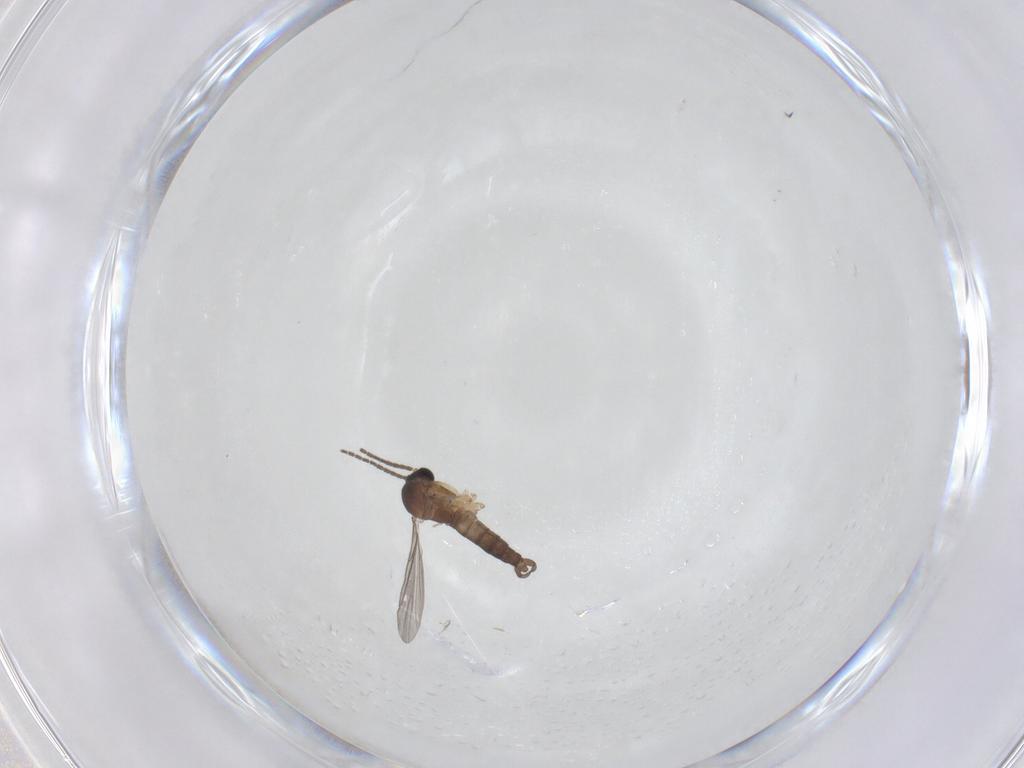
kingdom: Animalia
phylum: Arthropoda
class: Insecta
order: Diptera
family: Sciaridae
